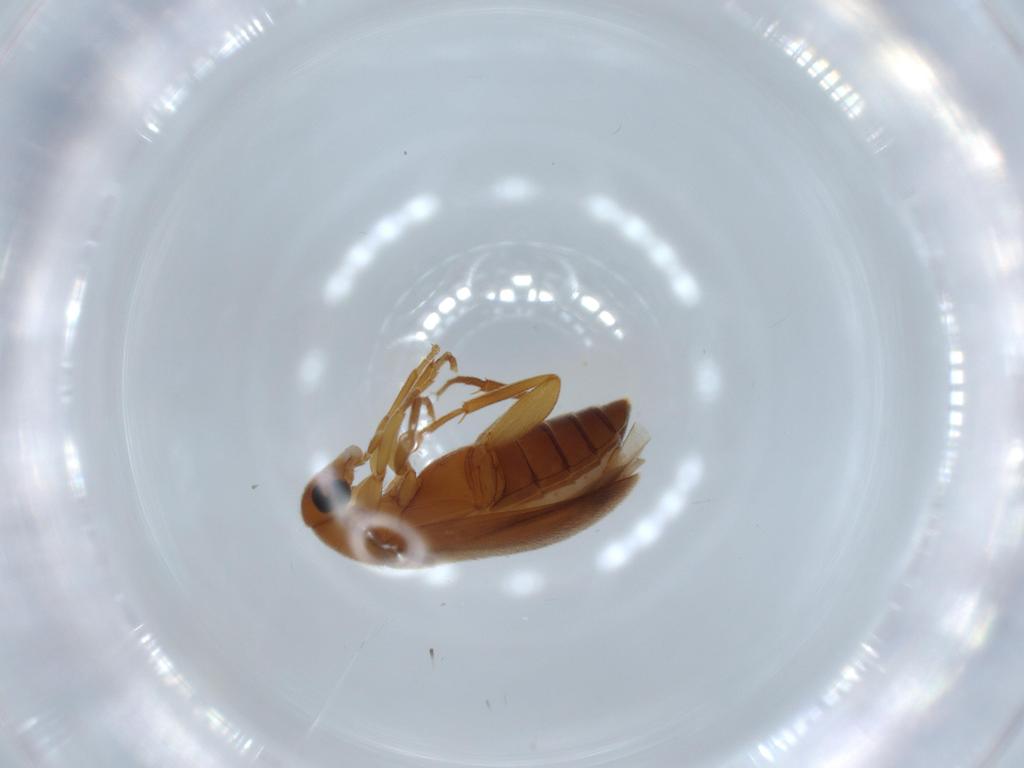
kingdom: Animalia
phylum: Arthropoda
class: Insecta
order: Coleoptera
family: Scraptiidae
